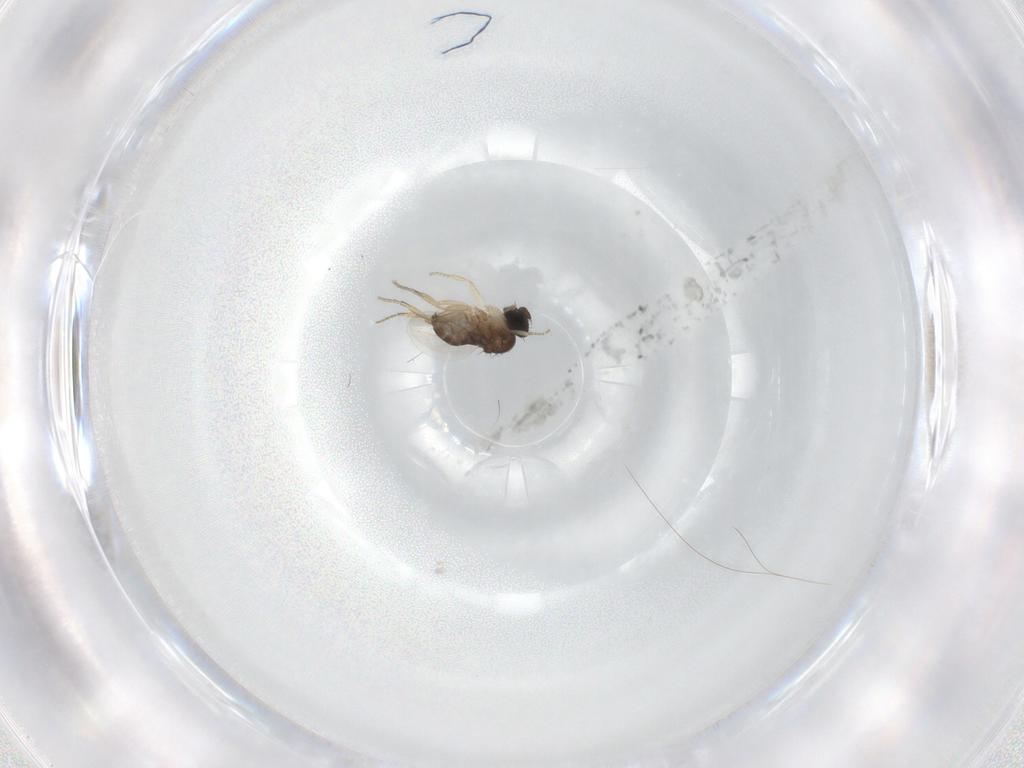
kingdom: Animalia
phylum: Arthropoda
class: Insecta
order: Diptera
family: Phoridae
